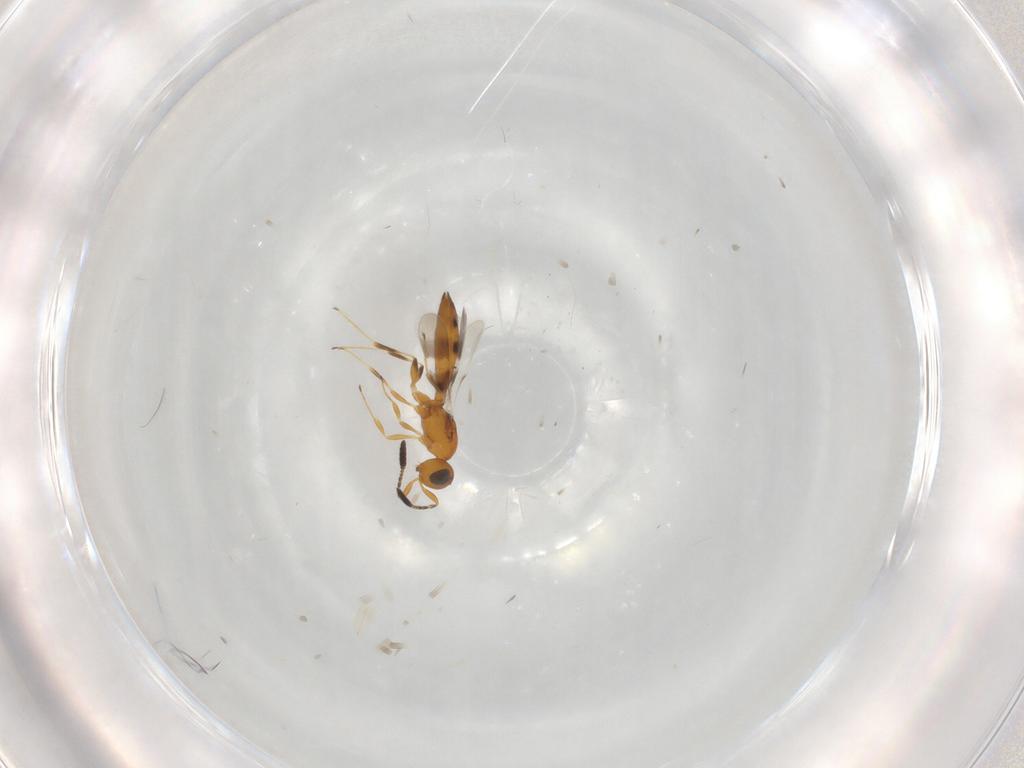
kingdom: Animalia
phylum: Arthropoda
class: Insecta
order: Hymenoptera
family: Scelionidae
